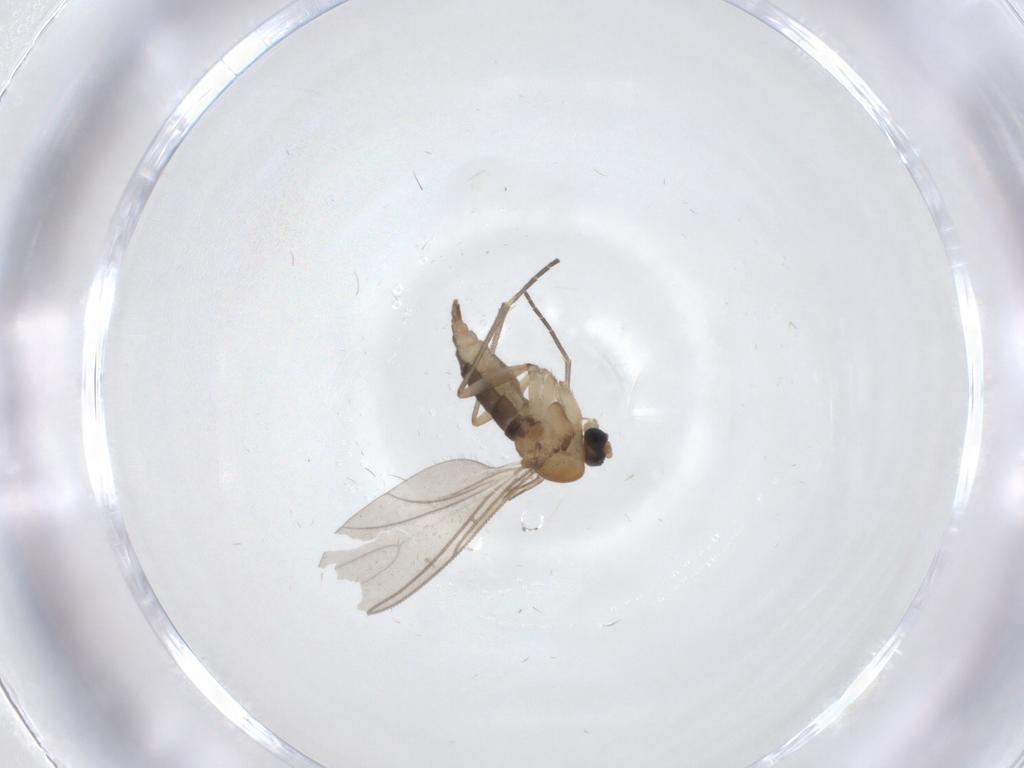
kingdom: Animalia
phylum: Arthropoda
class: Insecta
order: Diptera
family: Sciaridae
